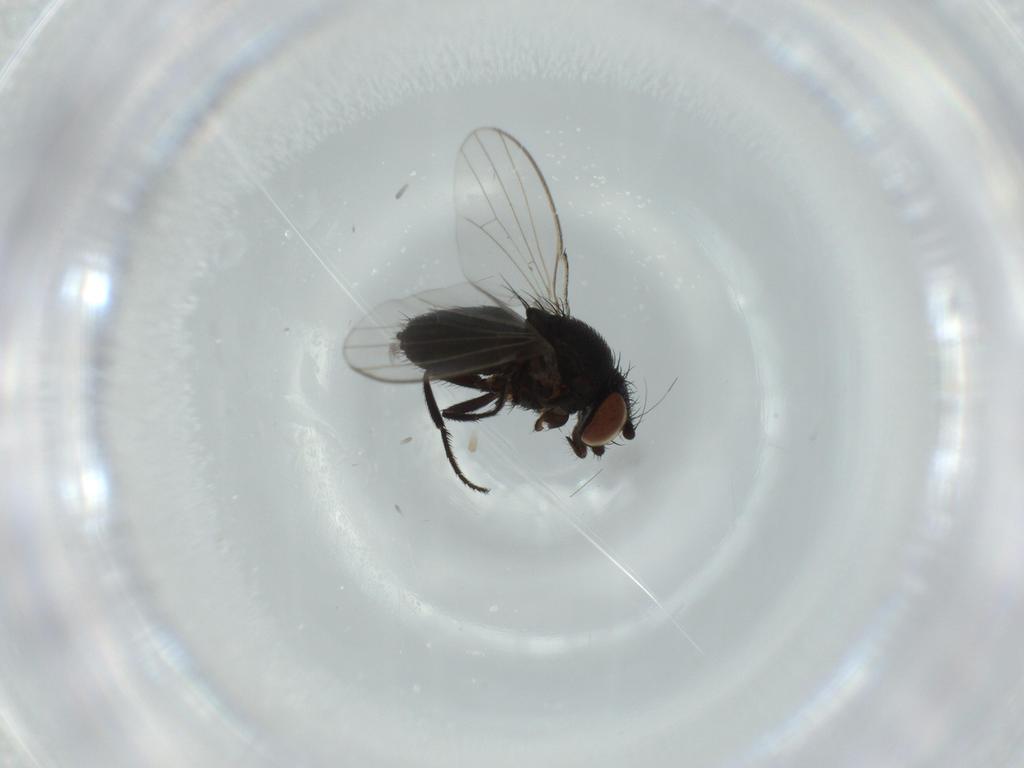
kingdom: Animalia
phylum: Arthropoda
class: Insecta
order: Diptera
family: Milichiidae
